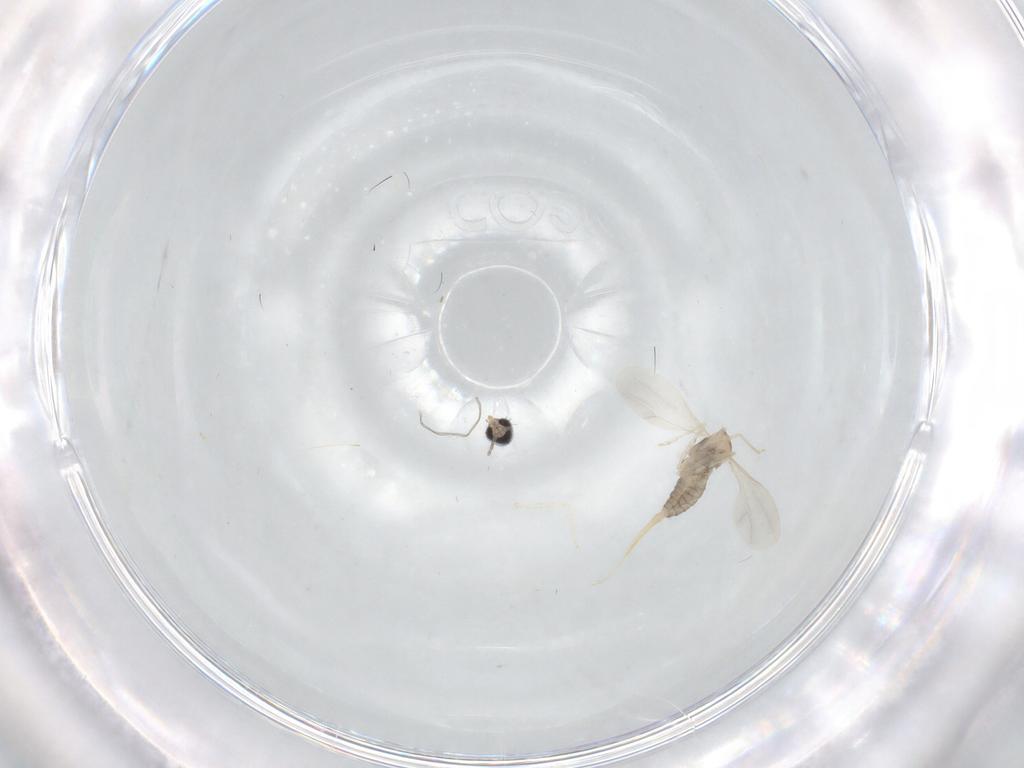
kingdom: Animalia
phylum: Arthropoda
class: Insecta
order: Diptera
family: Cecidomyiidae
